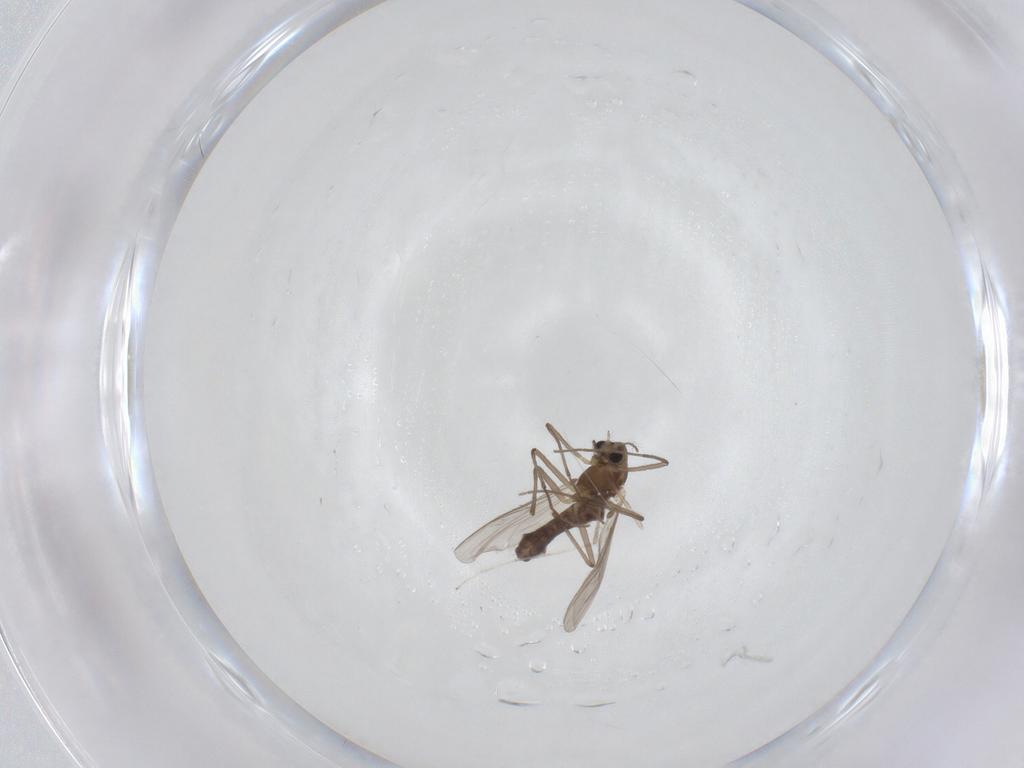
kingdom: Animalia
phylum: Arthropoda
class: Insecta
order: Diptera
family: Chironomidae
